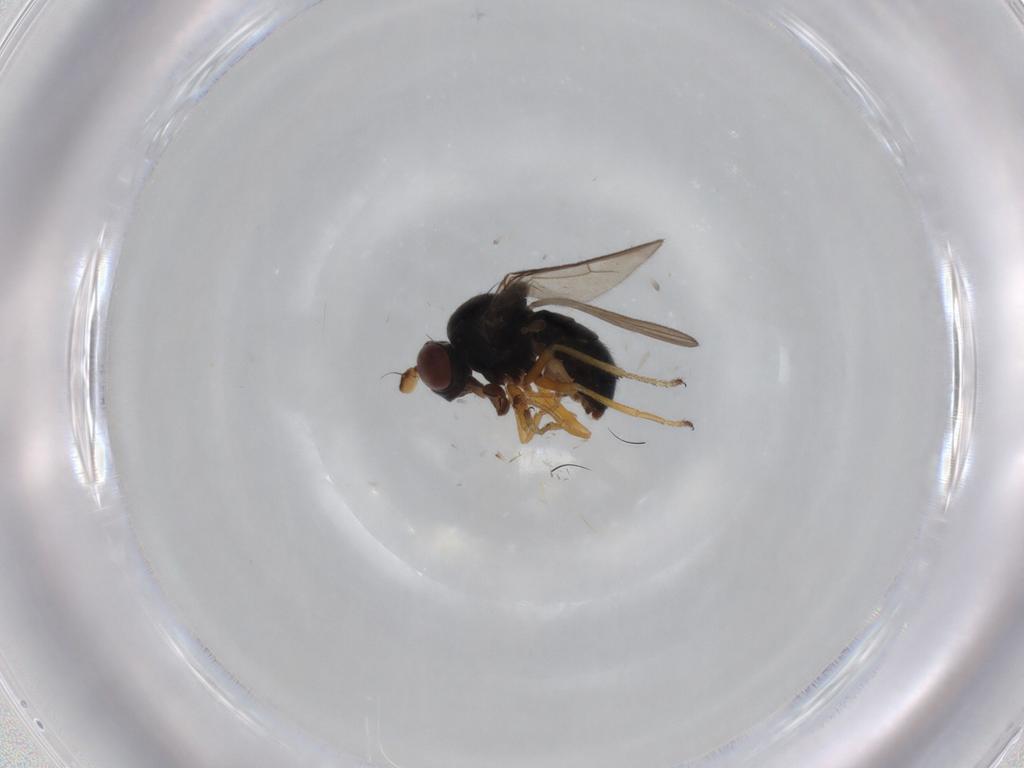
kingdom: Animalia
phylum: Arthropoda
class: Insecta
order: Diptera
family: Ephydridae
